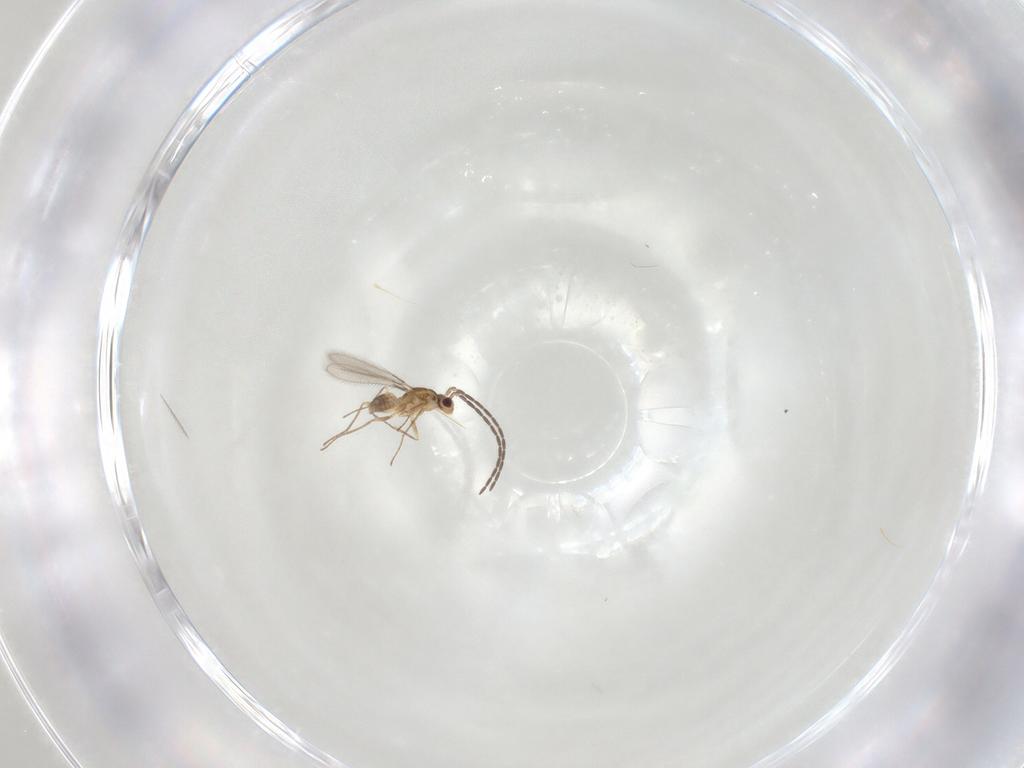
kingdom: Animalia
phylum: Arthropoda
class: Insecta
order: Hymenoptera
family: Mymaridae
